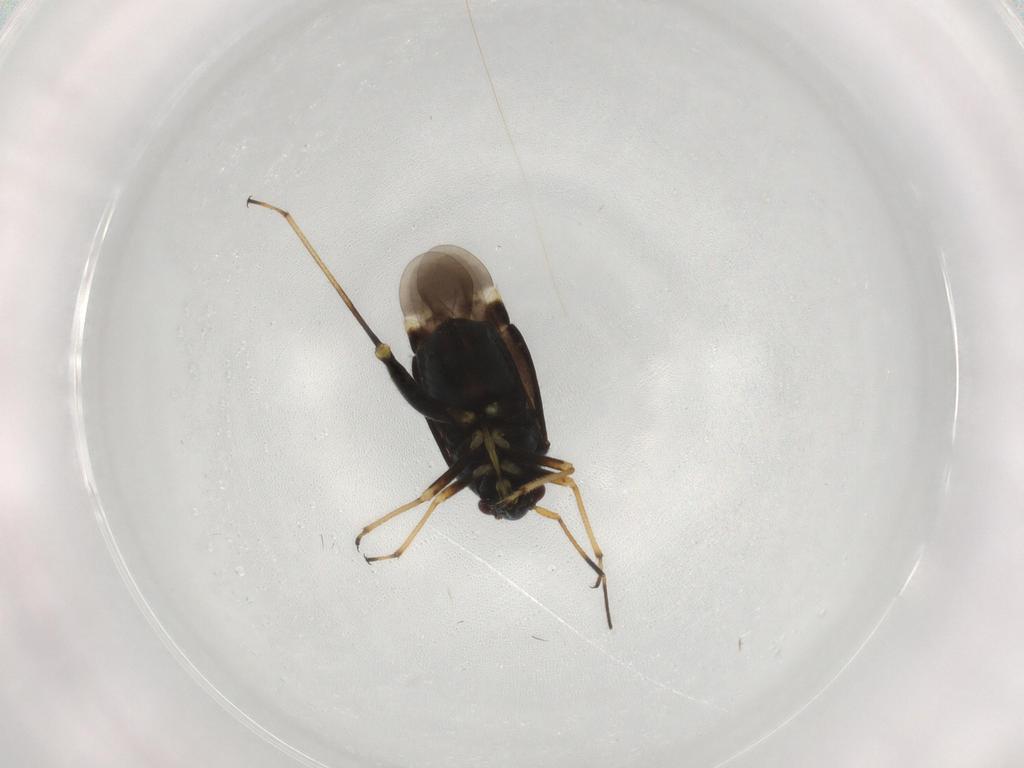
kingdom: Animalia
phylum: Arthropoda
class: Insecta
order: Hemiptera
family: Miridae
